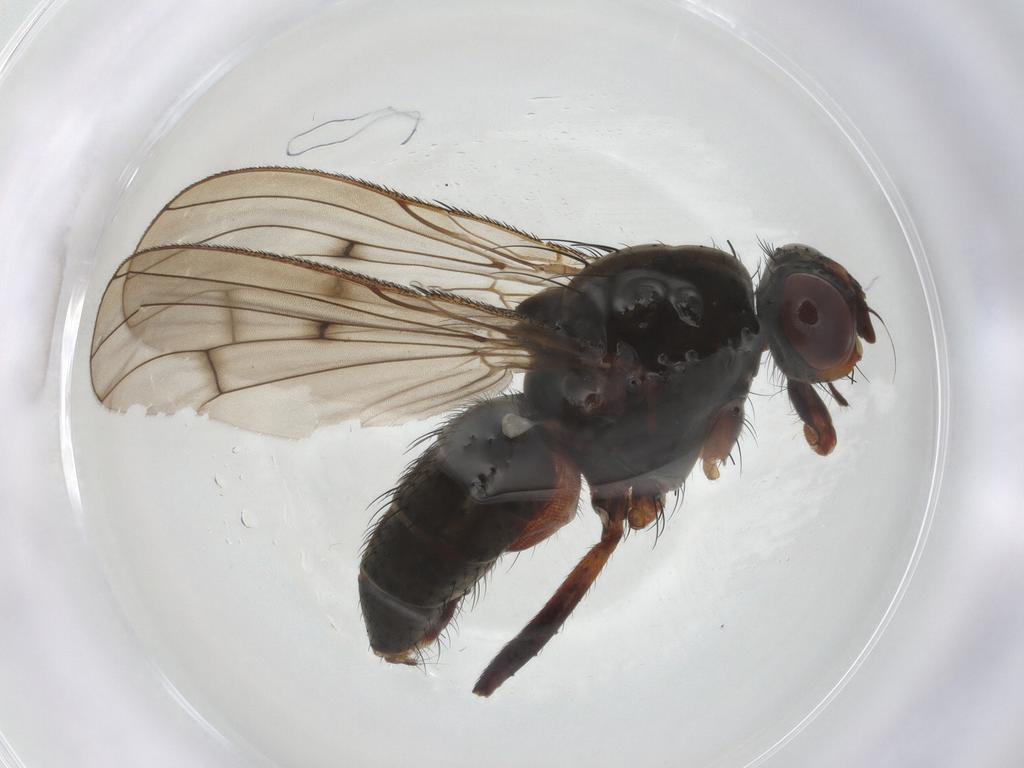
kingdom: Animalia
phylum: Arthropoda
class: Insecta
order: Diptera
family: Anthomyiidae
